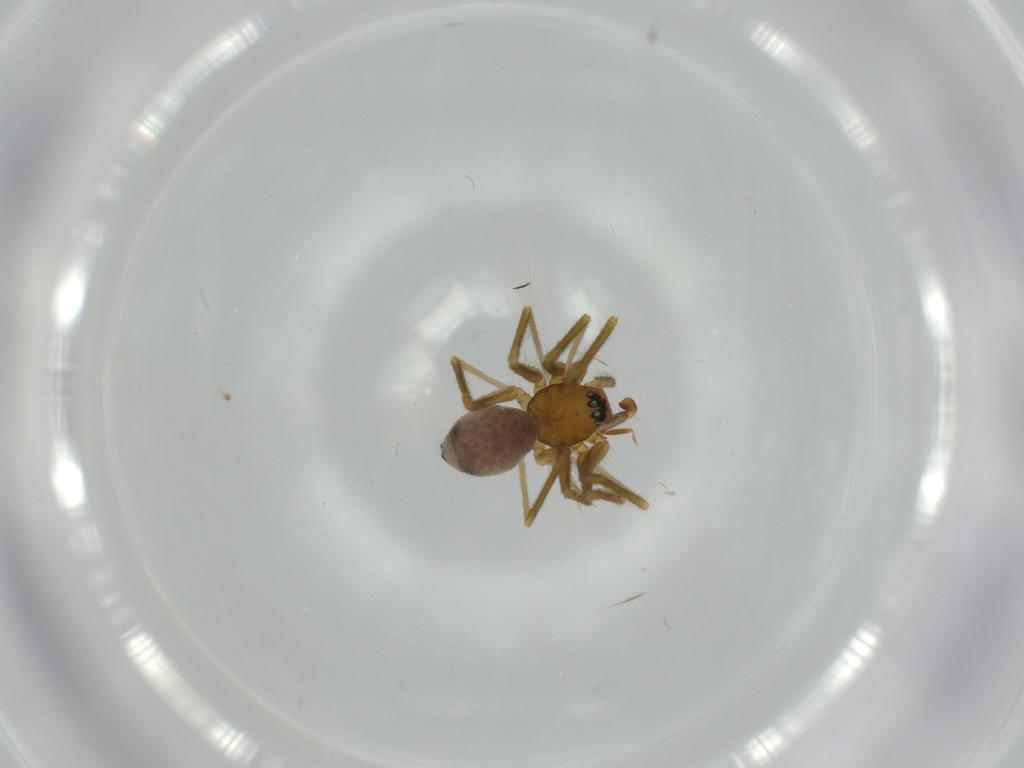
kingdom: Animalia
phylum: Arthropoda
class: Arachnida
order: Araneae
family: Linyphiidae
